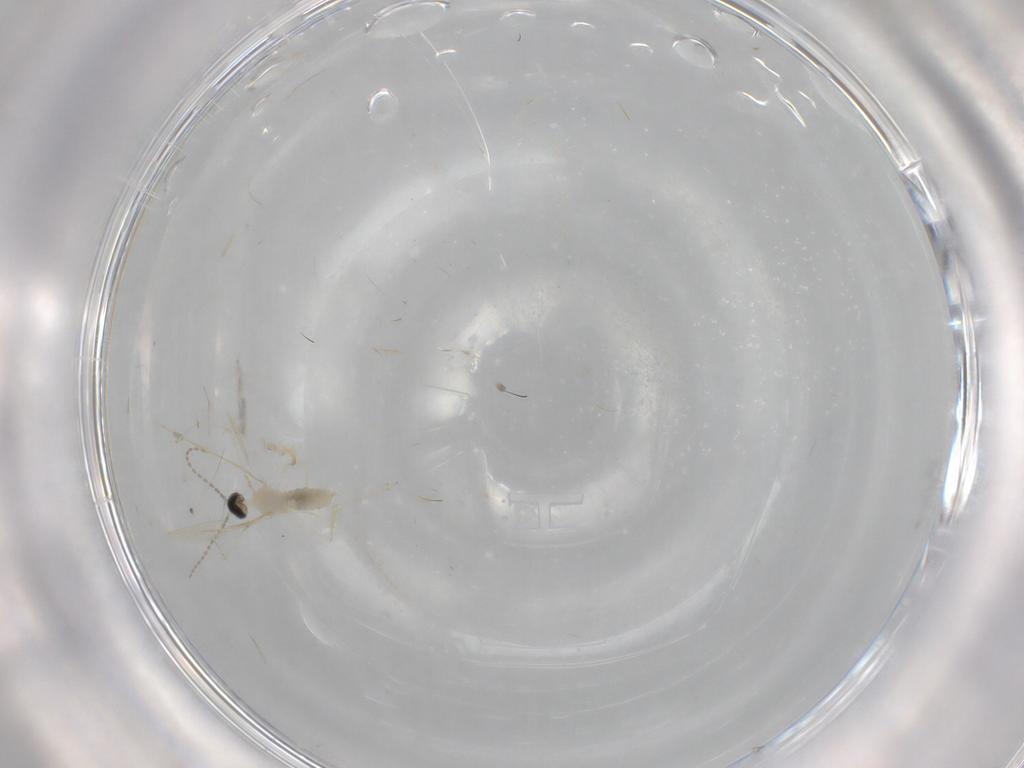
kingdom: Animalia
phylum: Arthropoda
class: Insecta
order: Diptera
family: Cecidomyiidae
